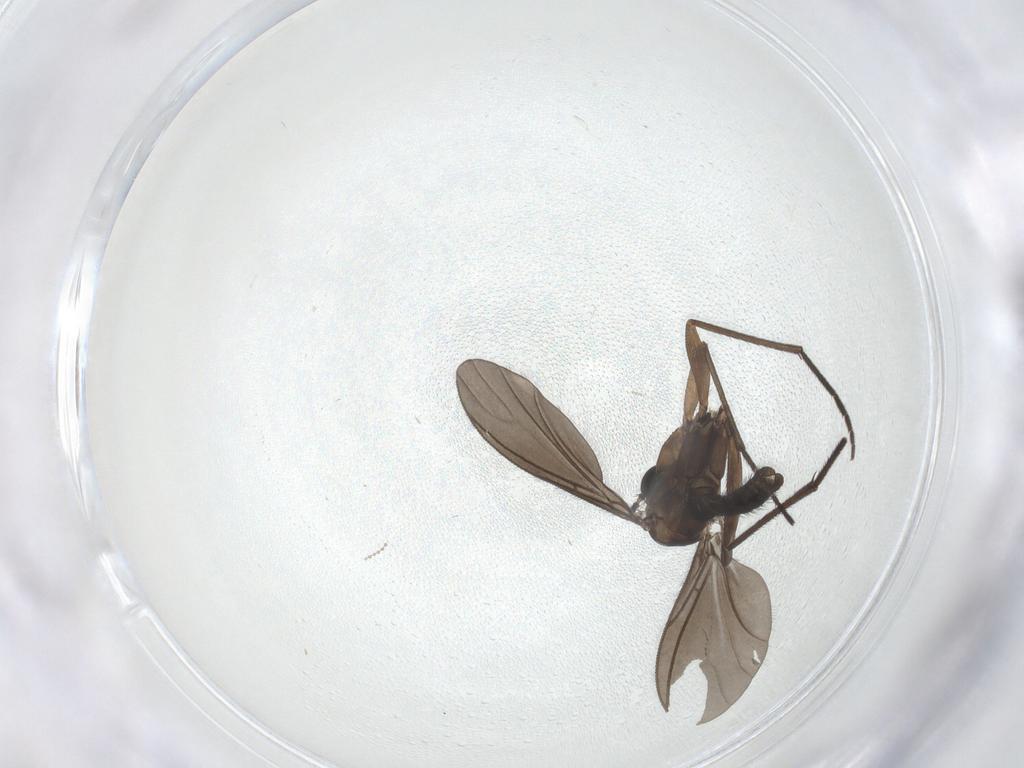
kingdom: Animalia
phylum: Arthropoda
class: Insecta
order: Diptera
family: Sciaridae
